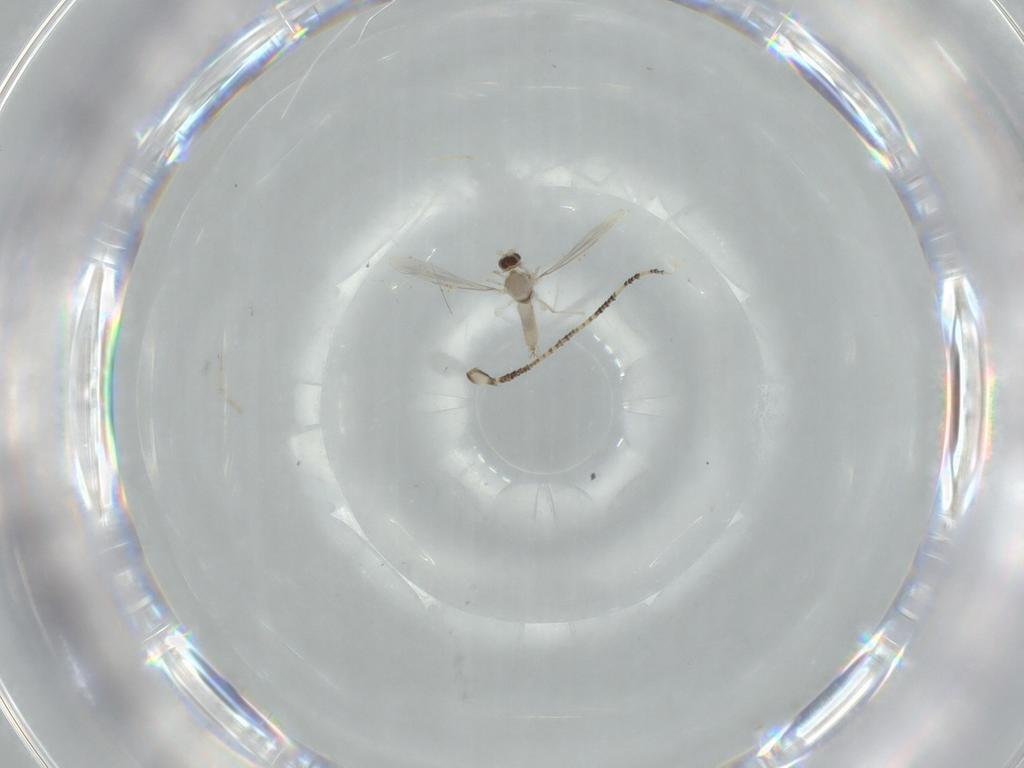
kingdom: Animalia
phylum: Arthropoda
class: Insecta
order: Diptera
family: Cecidomyiidae
